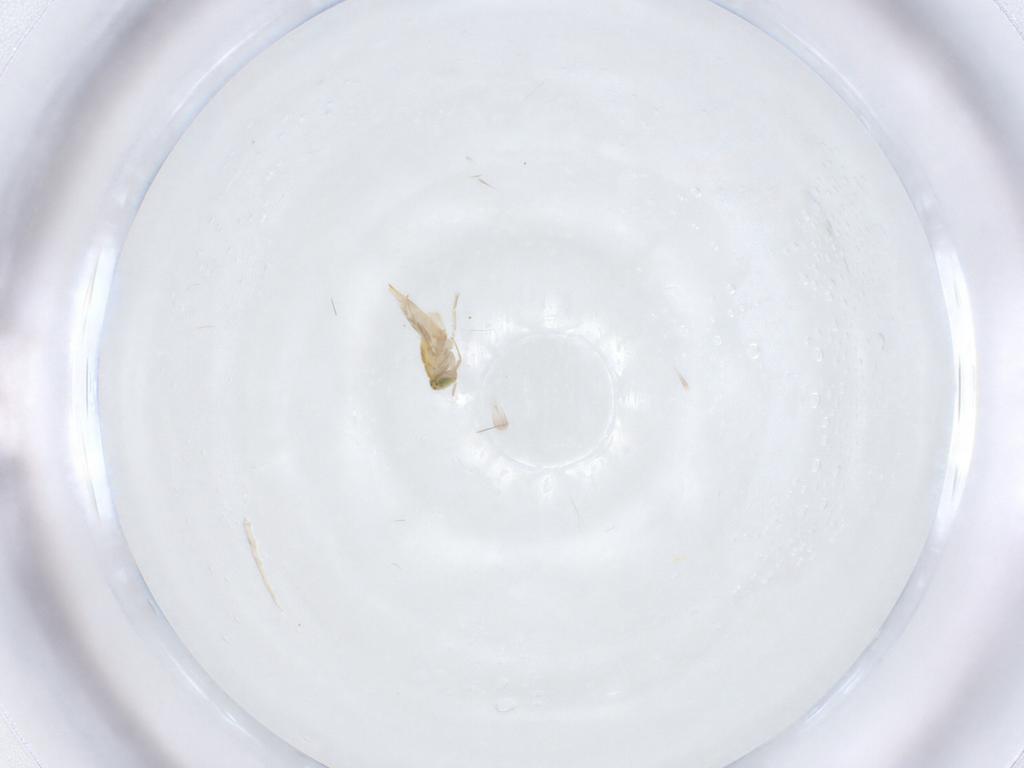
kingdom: Animalia
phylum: Arthropoda
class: Insecta
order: Hymenoptera
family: Aphelinidae
